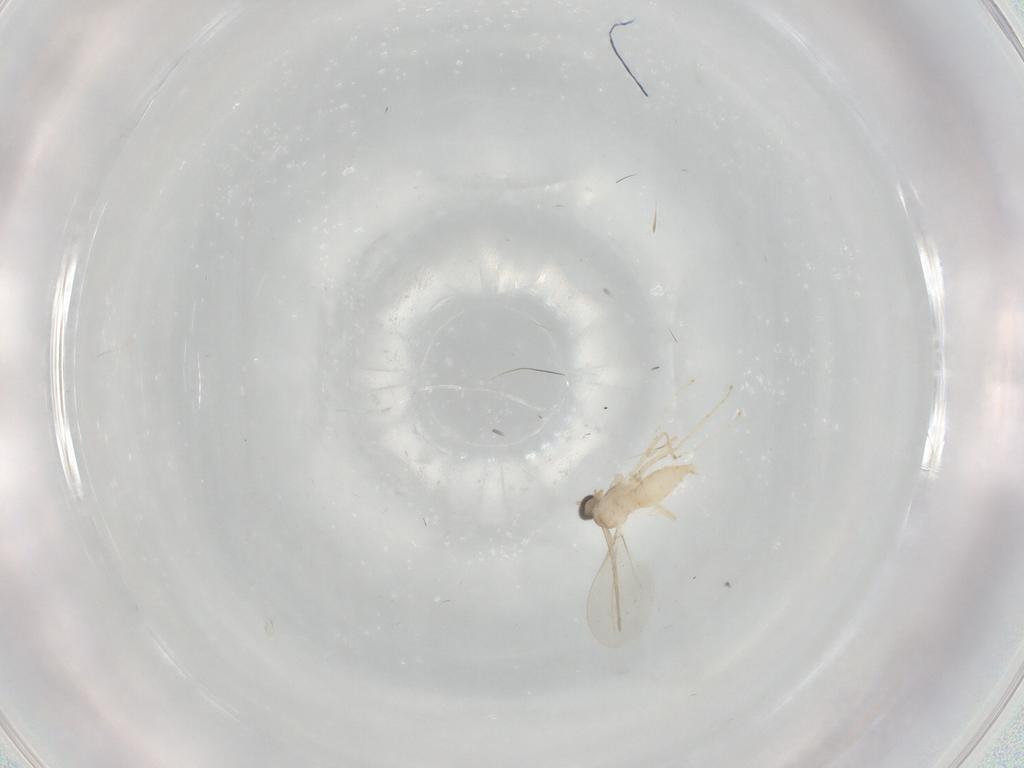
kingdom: Animalia
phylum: Arthropoda
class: Insecta
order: Diptera
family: Cecidomyiidae
